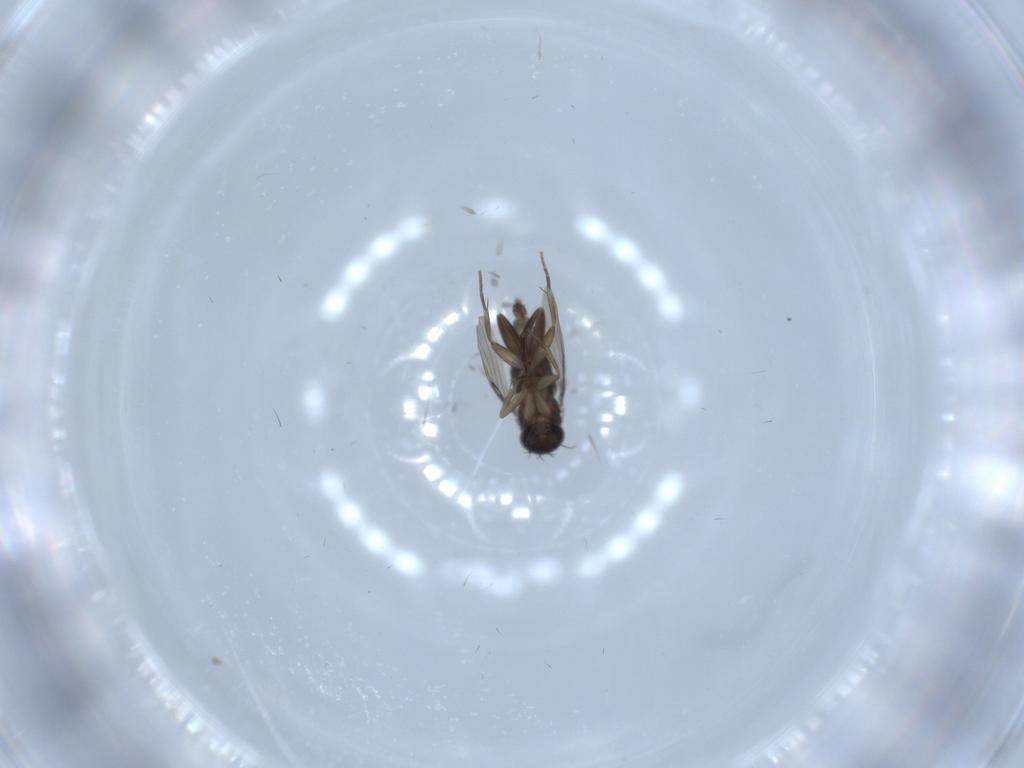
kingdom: Animalia
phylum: Arthropoda
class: Insecta
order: Diptera
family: Phoridae
